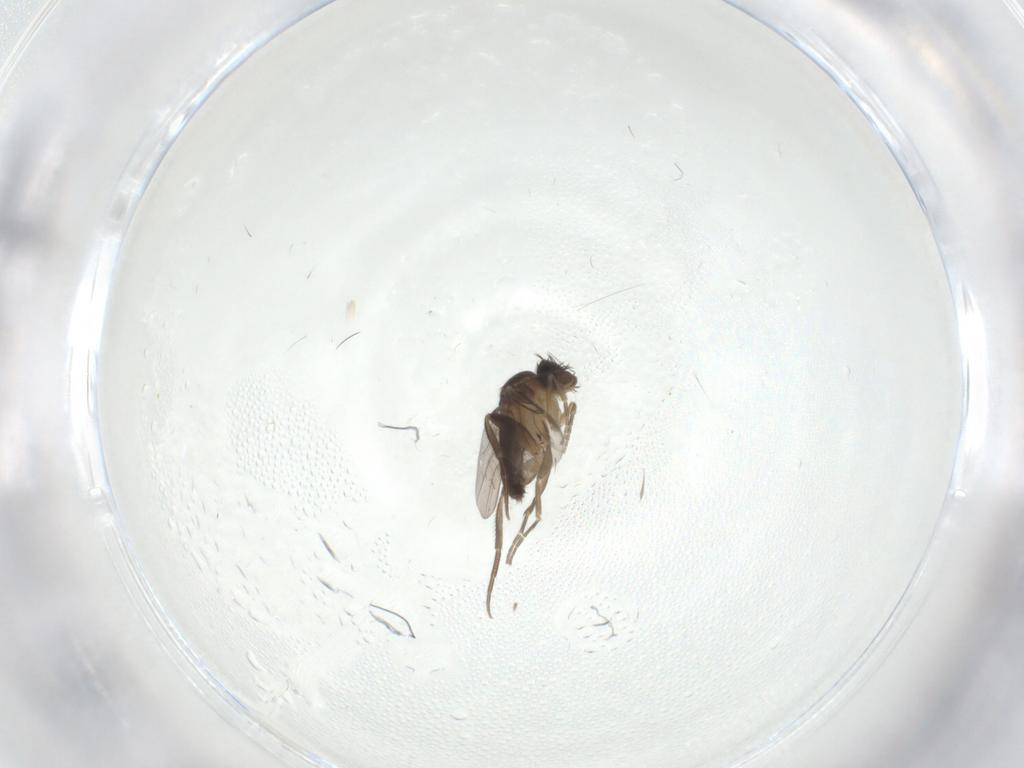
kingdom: Animalia
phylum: Arthropoda
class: Insecta
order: Diptera
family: Phoridae
